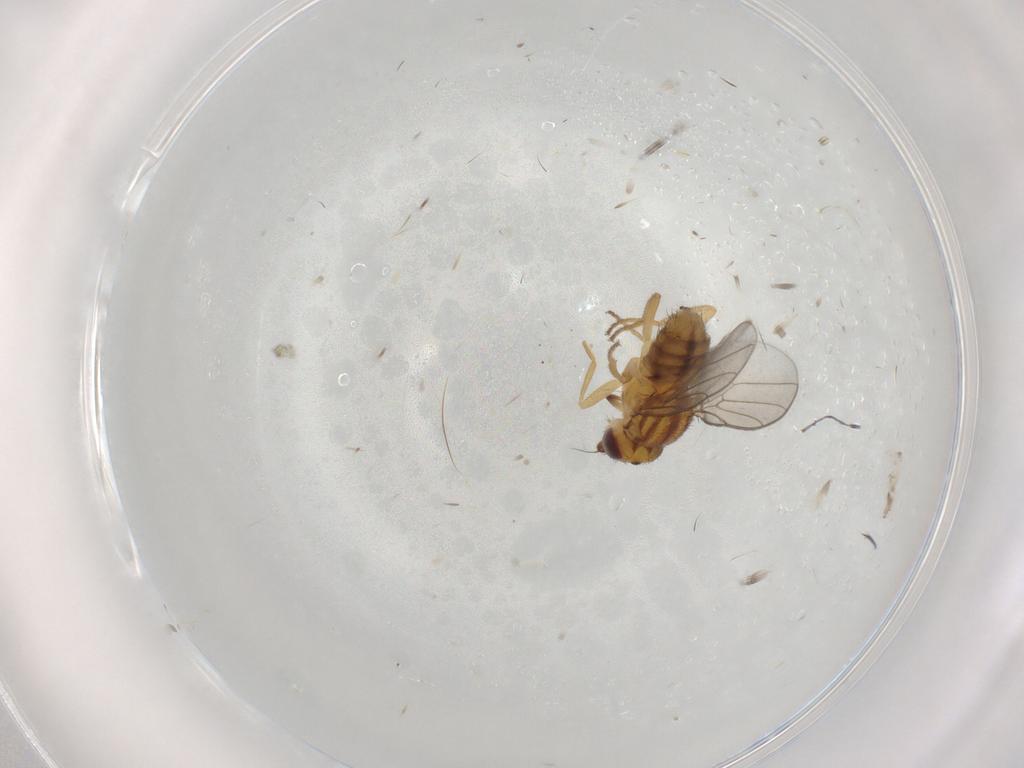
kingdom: Animalia
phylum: Arthropoda
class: Insecta
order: Diptera
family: Chloropidae
